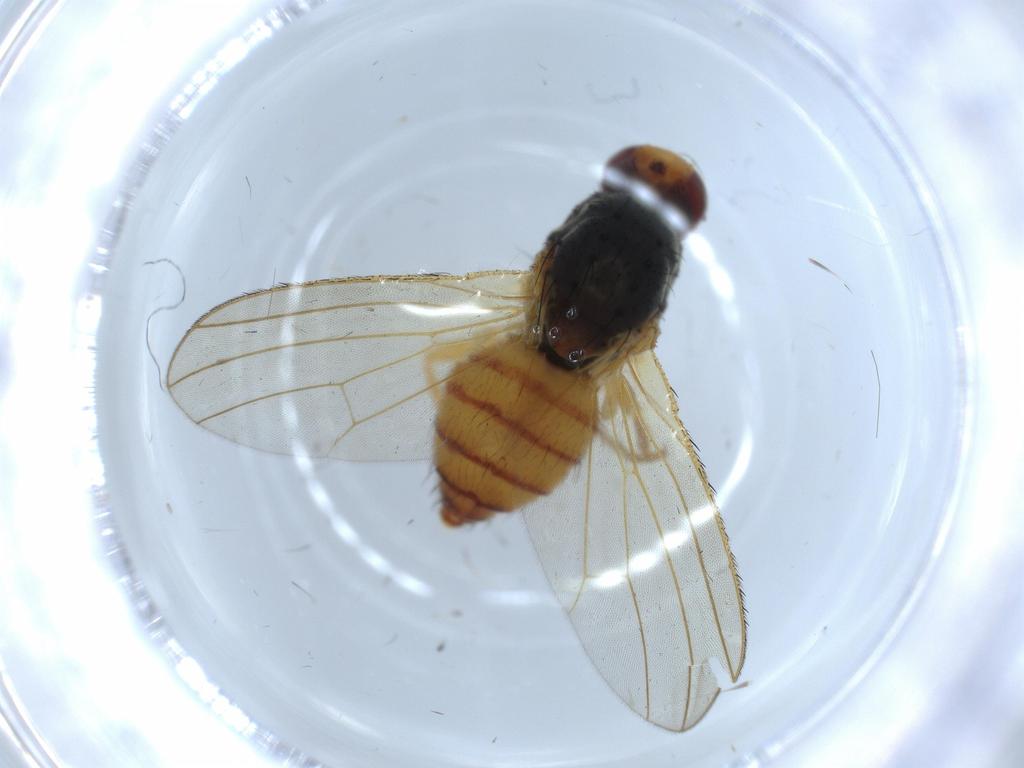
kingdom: Animalia
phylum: Arthropoda
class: Insecta
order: Diptera
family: Heleomyzidae
